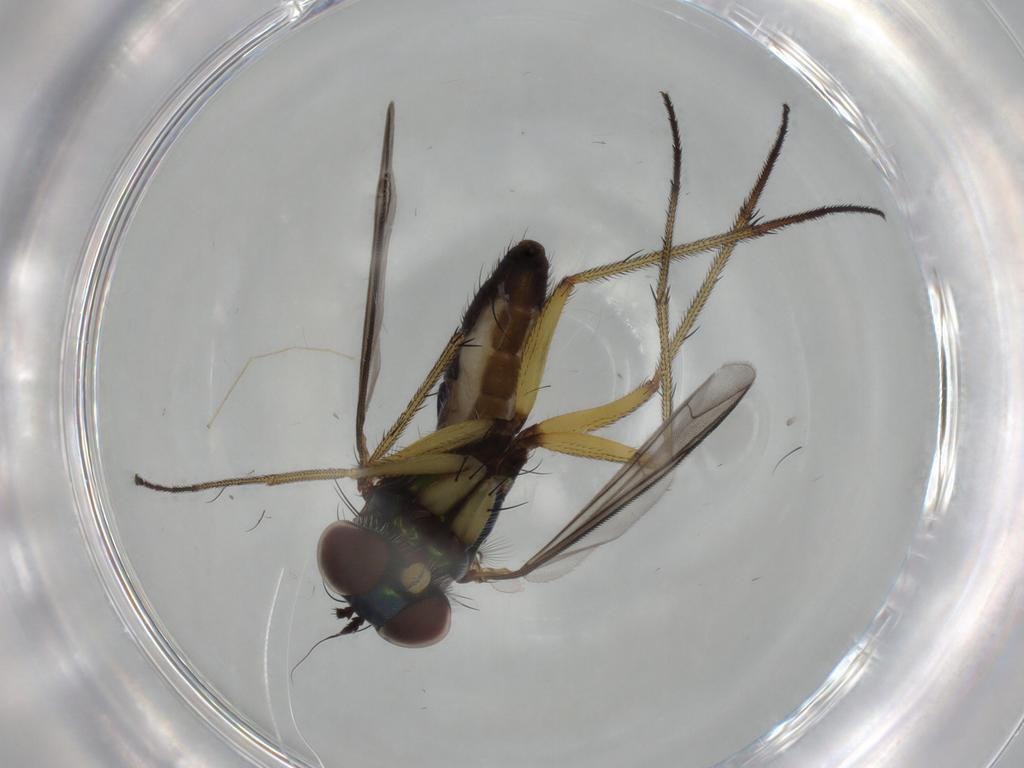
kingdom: Animalia
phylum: Arthropoda
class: Insecta
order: Diptera
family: Dolichopodidae
